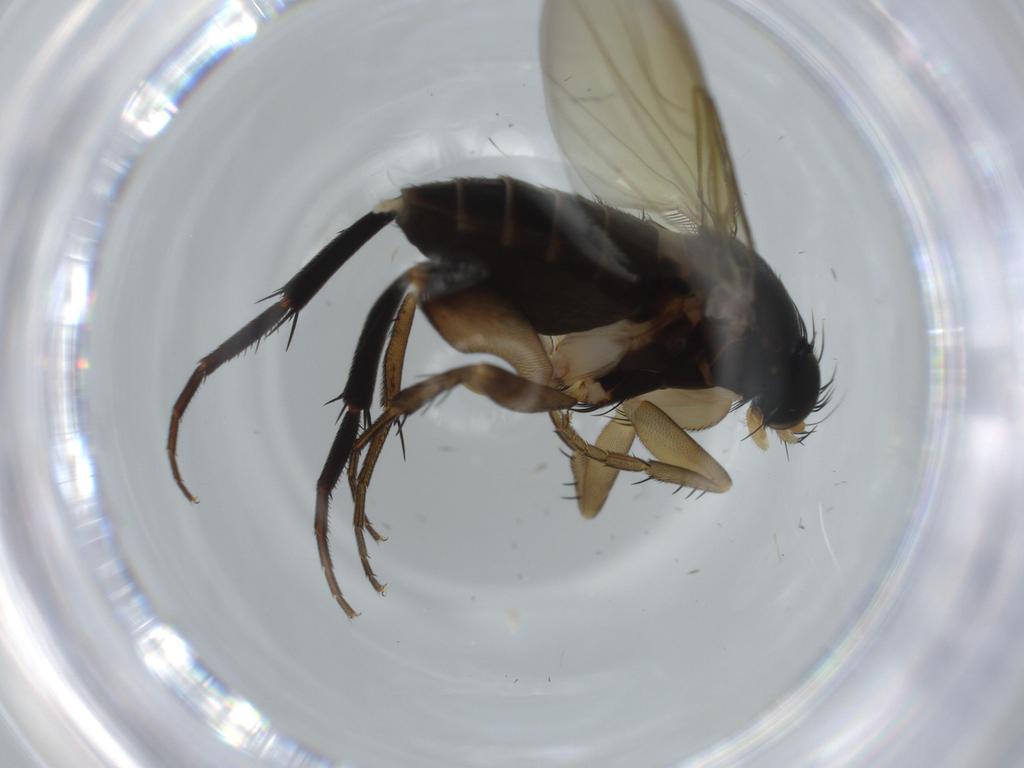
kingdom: Animalia
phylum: Arthropoda
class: Insecta
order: Diptera
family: Phoridae
